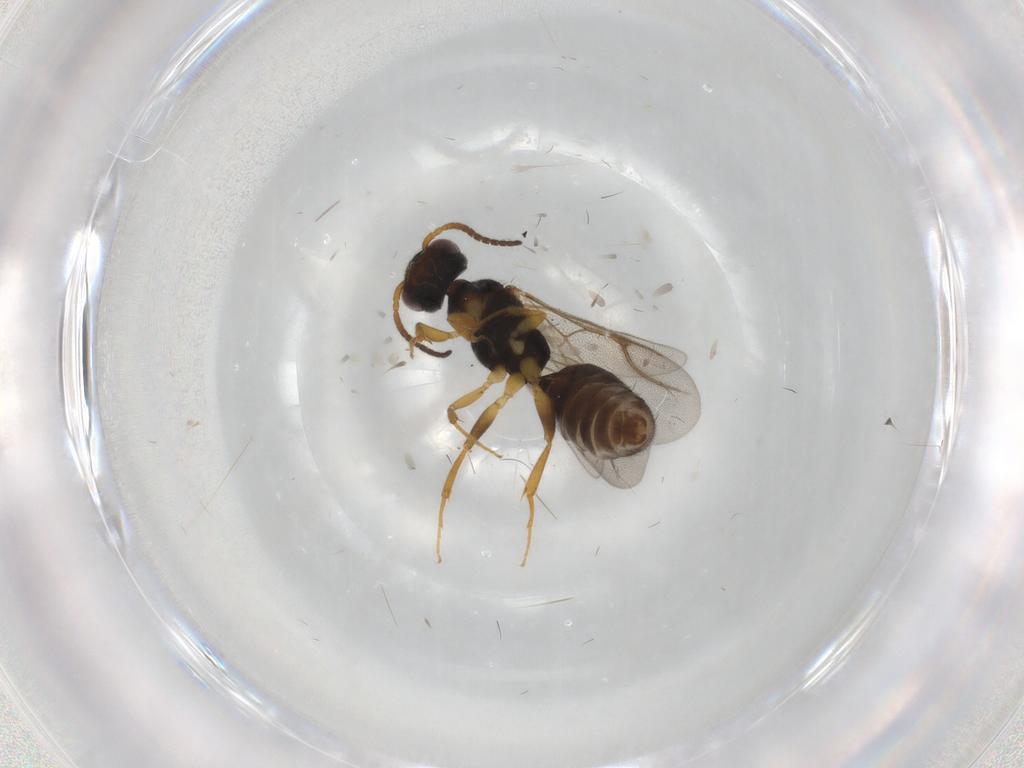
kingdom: Animalia
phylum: Arthropoda
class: Insecta
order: Hymenoptera
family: Bethylidae
